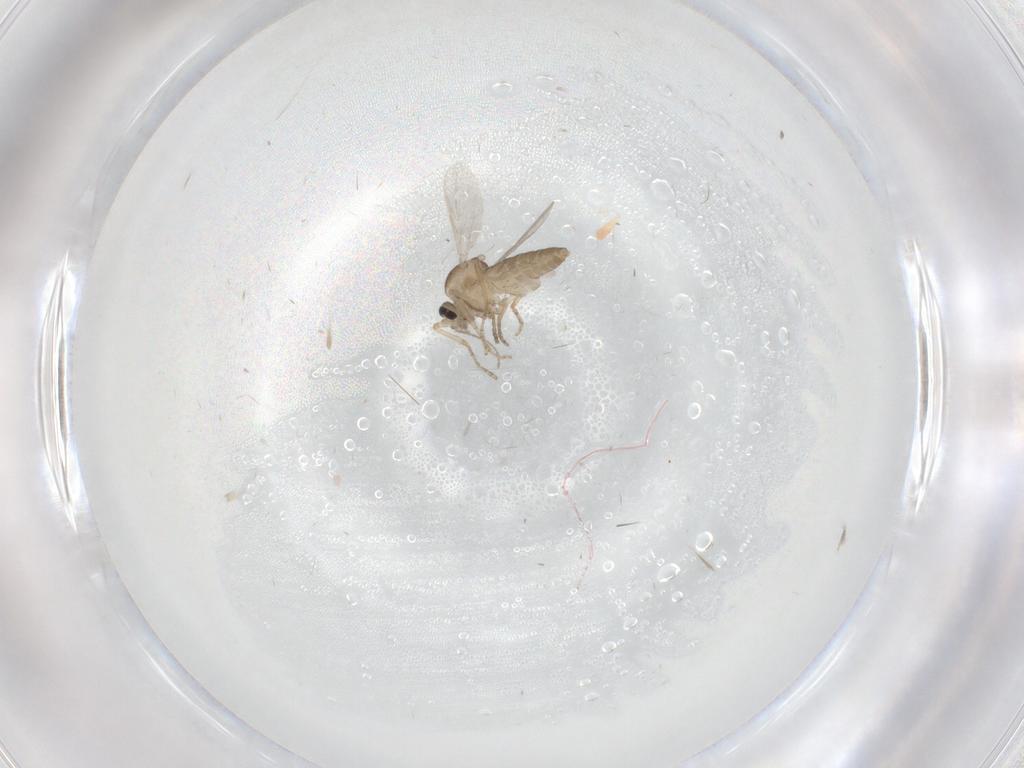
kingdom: Animalia
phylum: Arthropoda
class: Insecta
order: Diptera
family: Ceratopogonidae
